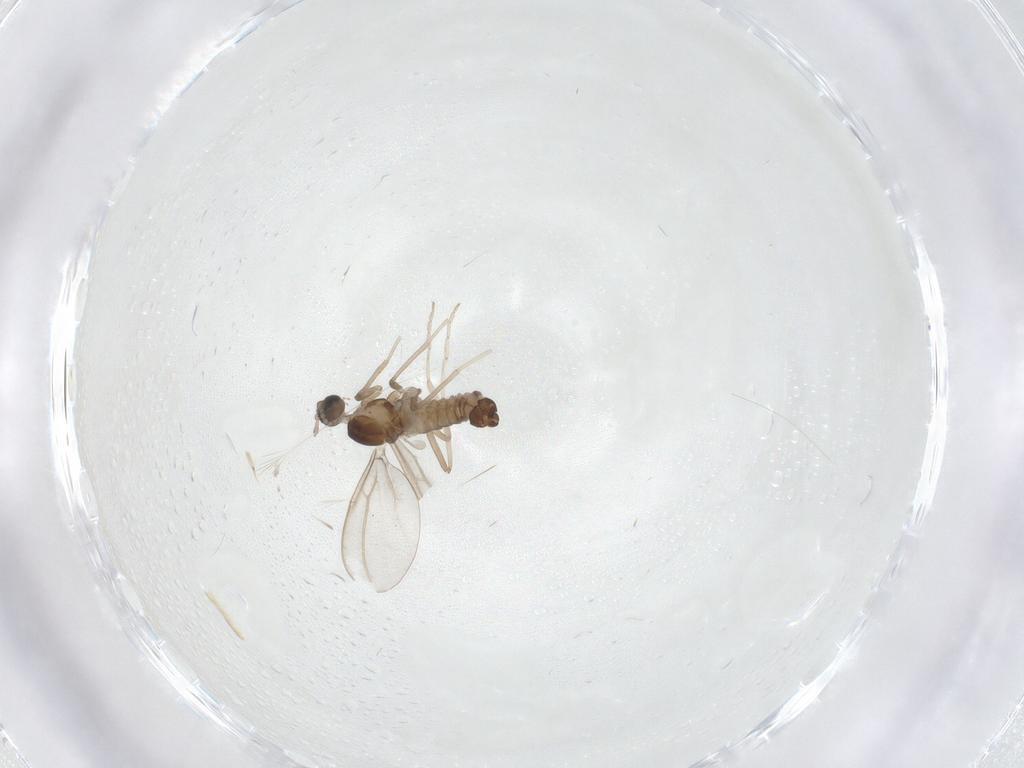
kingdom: Animalia
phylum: Arthropoda
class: Insecta
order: Diptera
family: Cecidomyiidae
